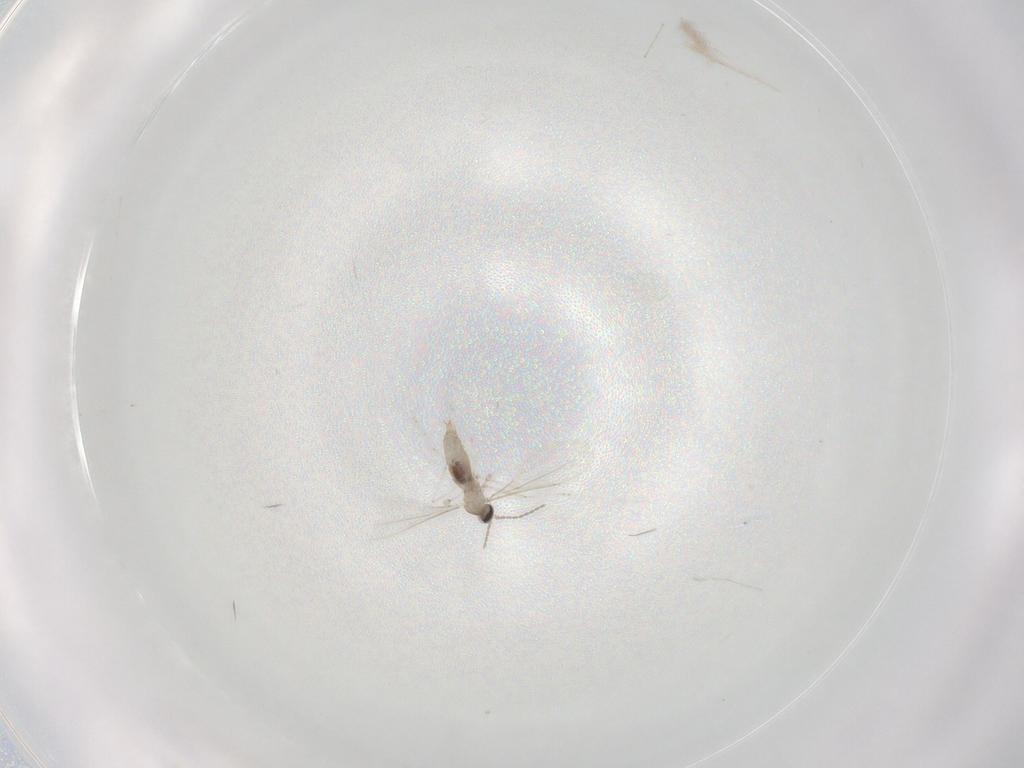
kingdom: Animalia
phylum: Arthropoda
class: Insecta
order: Diptera
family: Cecidomyiidae
